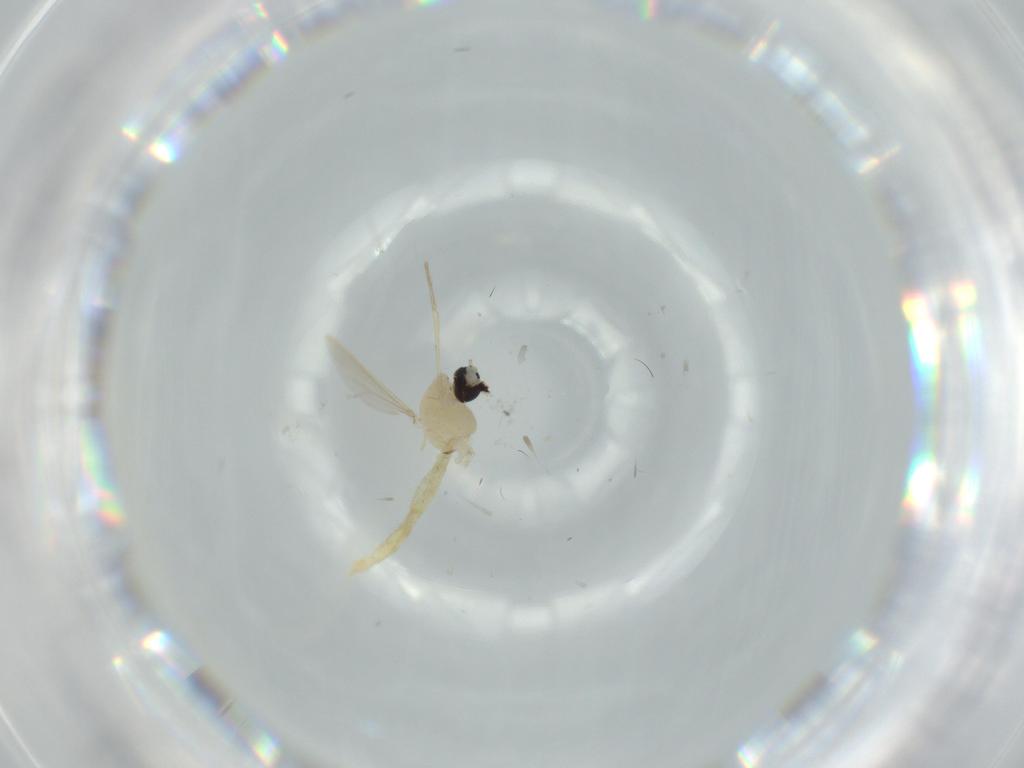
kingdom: Animalia
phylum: Arthropoda
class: Insecta
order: Diptera
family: Chironomidae
